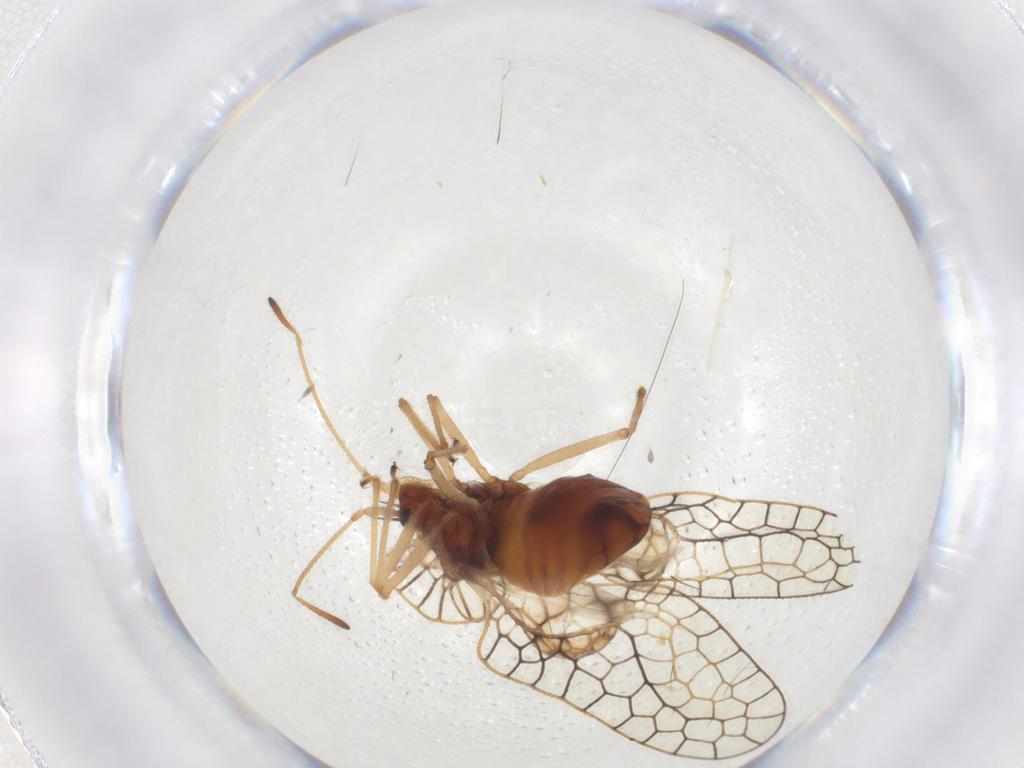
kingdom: Animalia
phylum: Arthropoda
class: Insecta
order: Hemiptera
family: Tingidae
